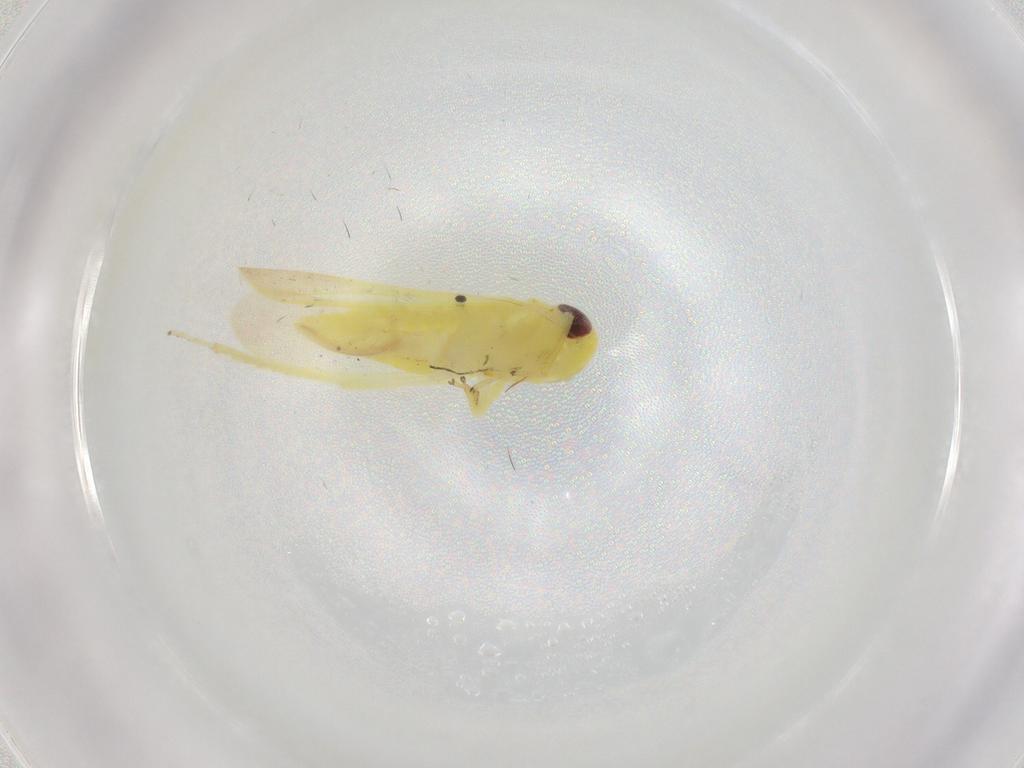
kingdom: Animalia
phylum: Arthropoda
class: Insecta
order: Hemiptera
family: Cicadellidae
